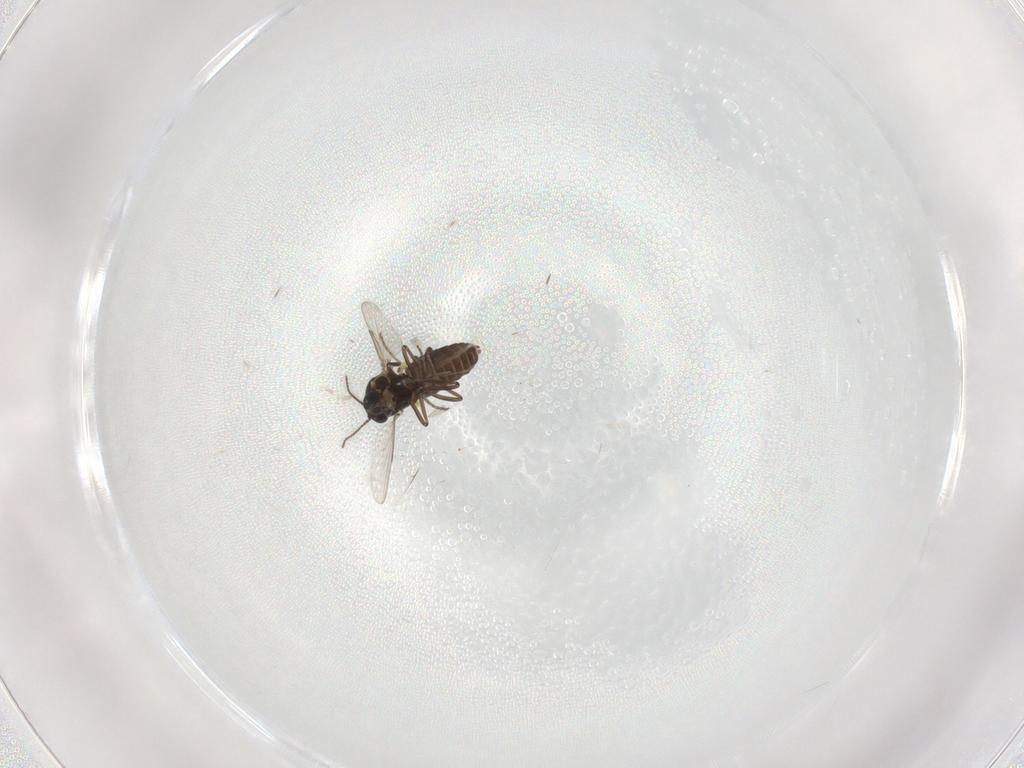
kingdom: Animalia
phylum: Arthropoda
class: Insecta
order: Diptera
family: Ceratopogonidae
